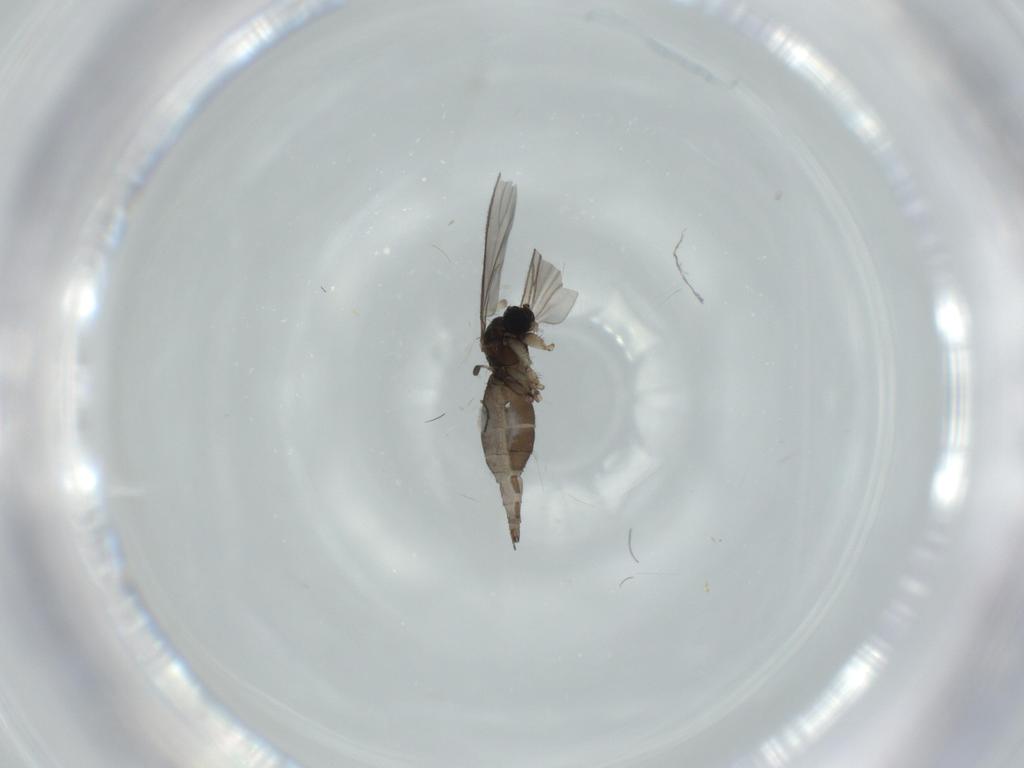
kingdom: Animalia
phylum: Arthropoda
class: Insecta
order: Diptera
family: Sciaridae
